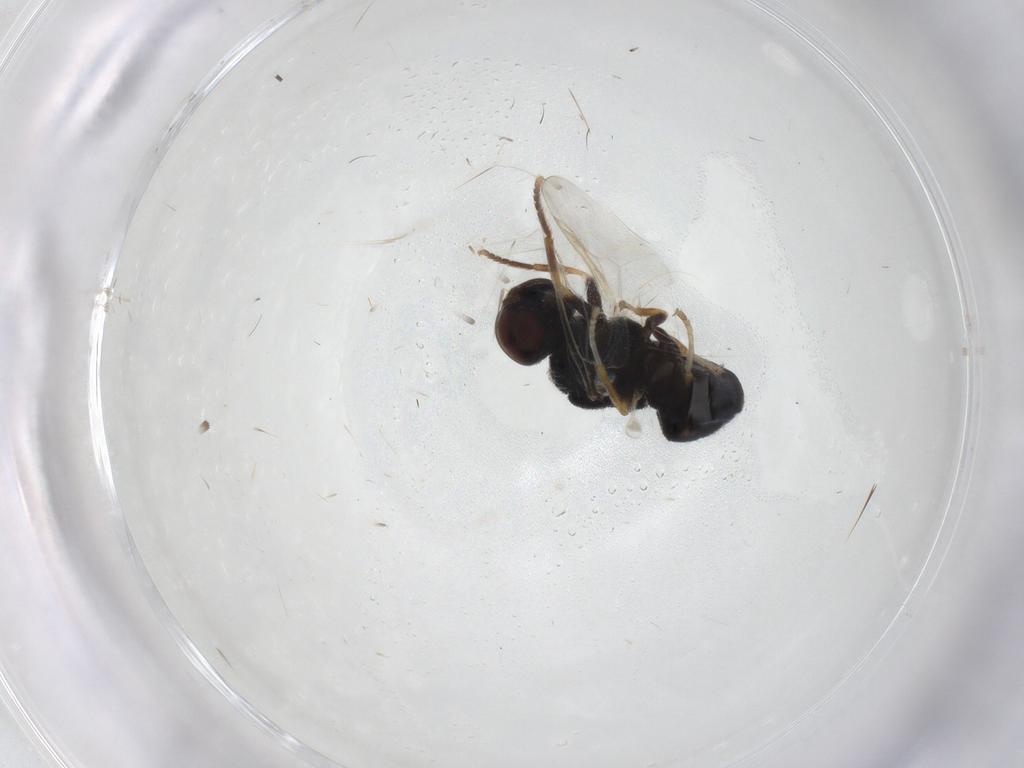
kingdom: Animalia
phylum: Arthropoda
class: Insecta
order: Diptera
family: Stratiomyidae
